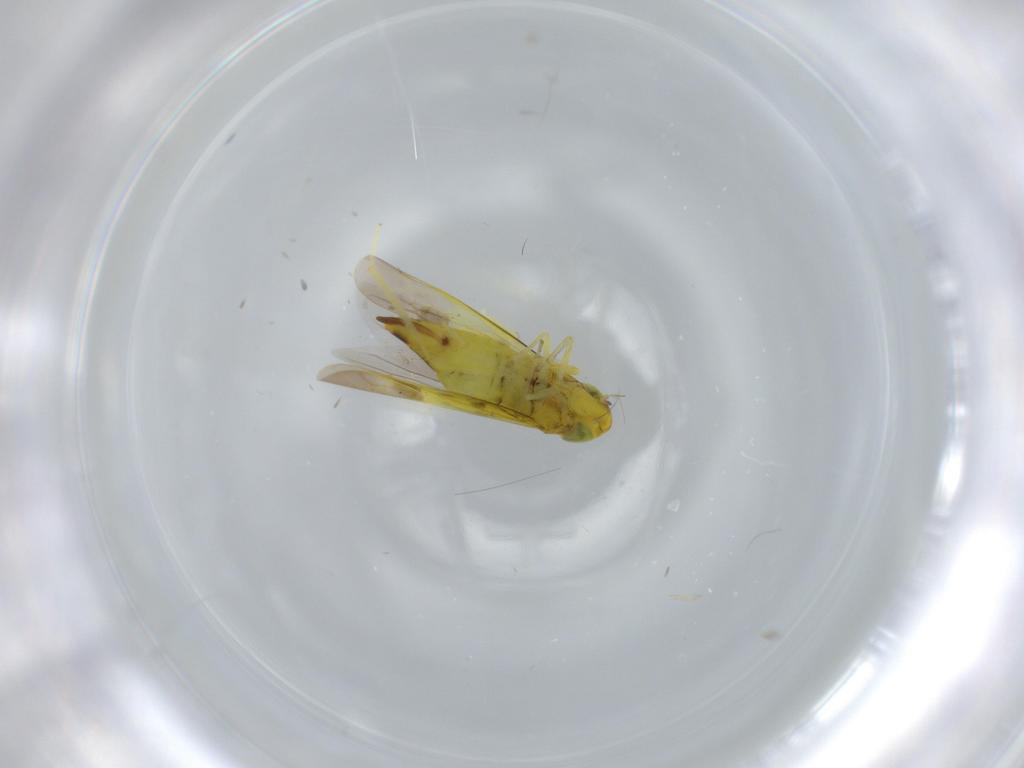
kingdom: Animalia
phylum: Arthropoda
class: Insecta
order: Hemiptera
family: Cicadellidae
